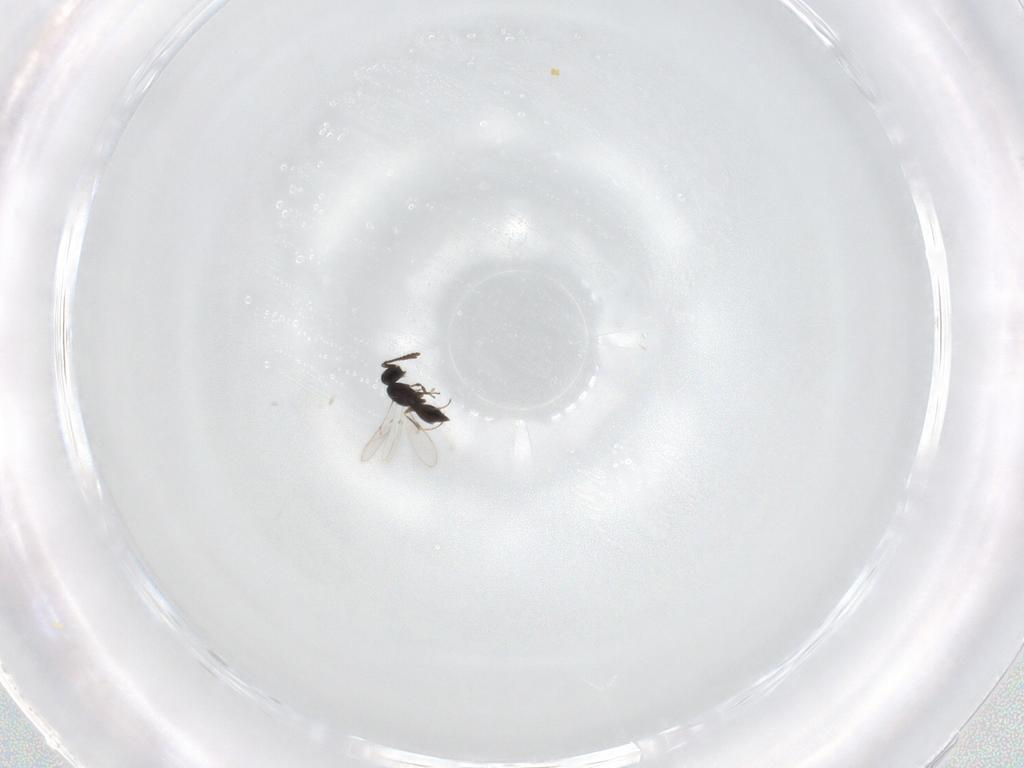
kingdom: Animalia
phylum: Arthropoda
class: Insecta
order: Hymenoptera
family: Scelionidae
